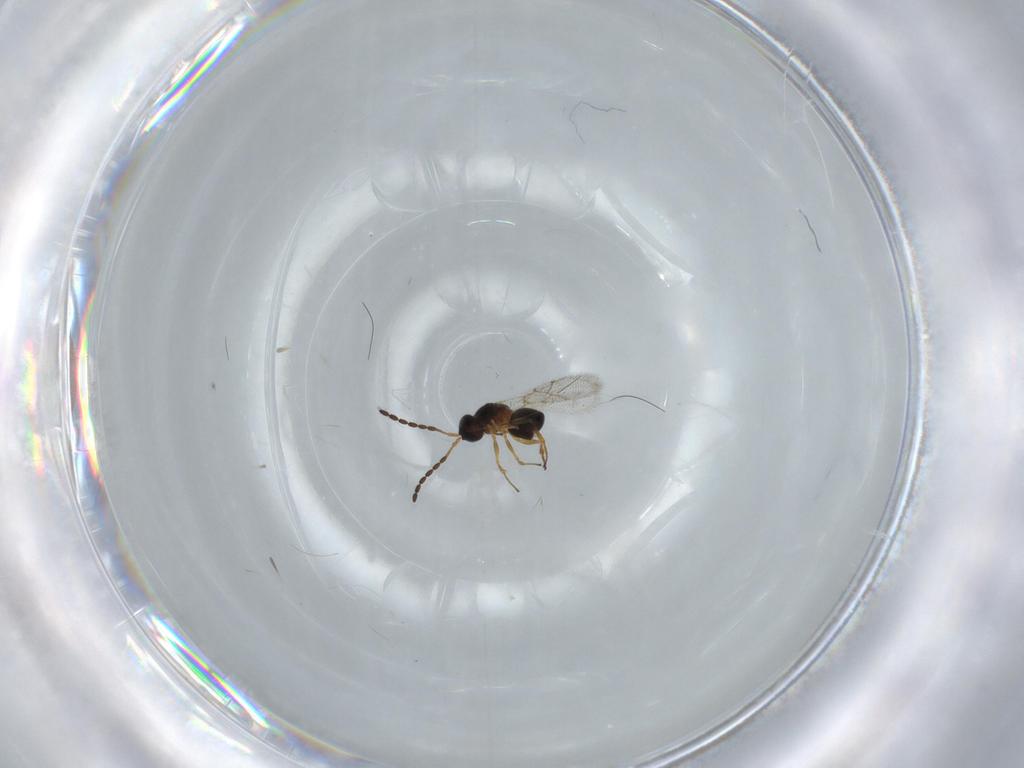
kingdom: Animalia
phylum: Arthropoda
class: Insecta
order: Hymenoptera
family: Figitidae
